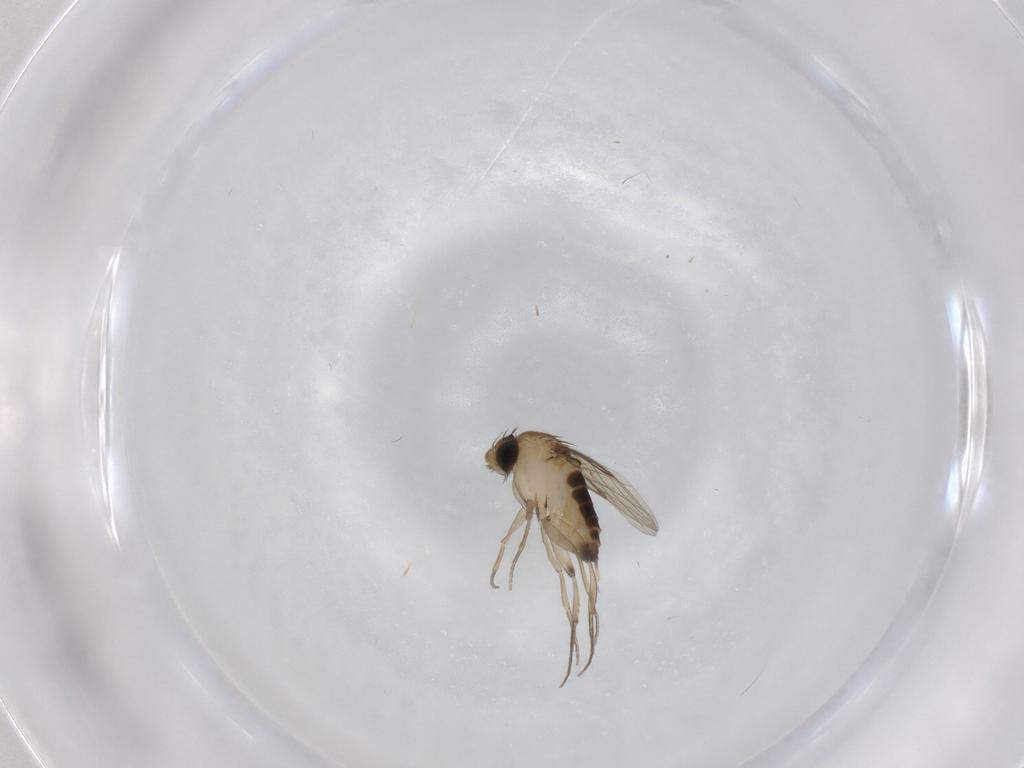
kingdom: Animalia
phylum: Arthropoda
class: Insecta
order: Diptera
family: Phoridae
